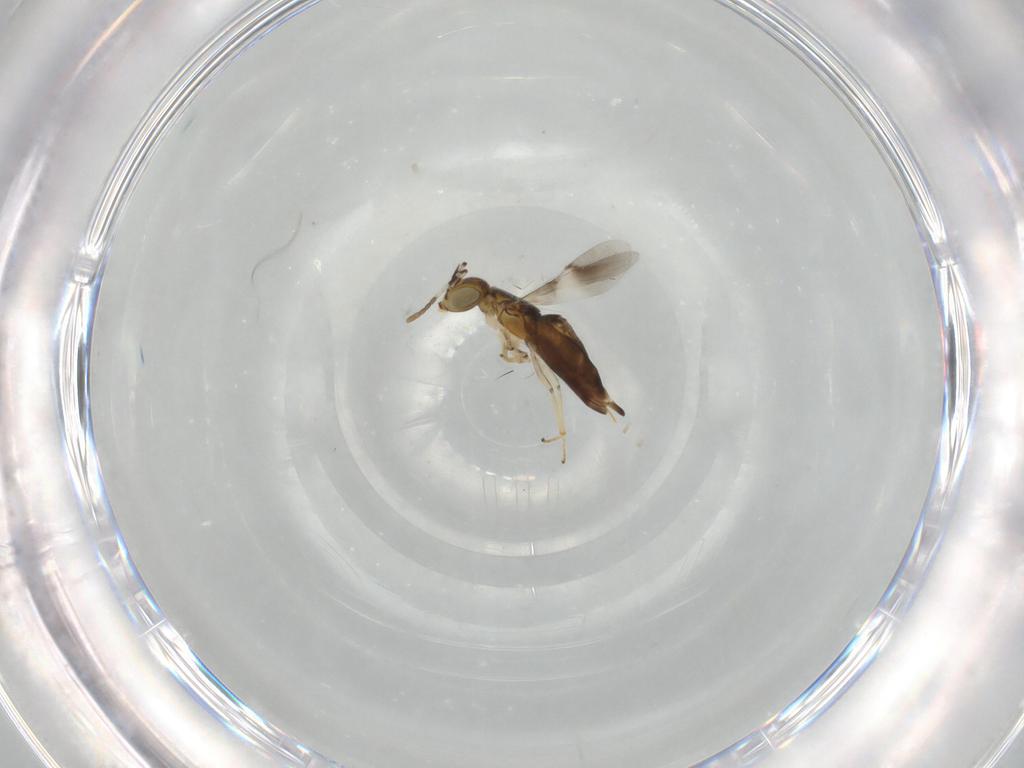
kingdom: Animalia
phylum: Arthropoda
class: Insecta
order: Hymenoptera
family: Encyrtidae
